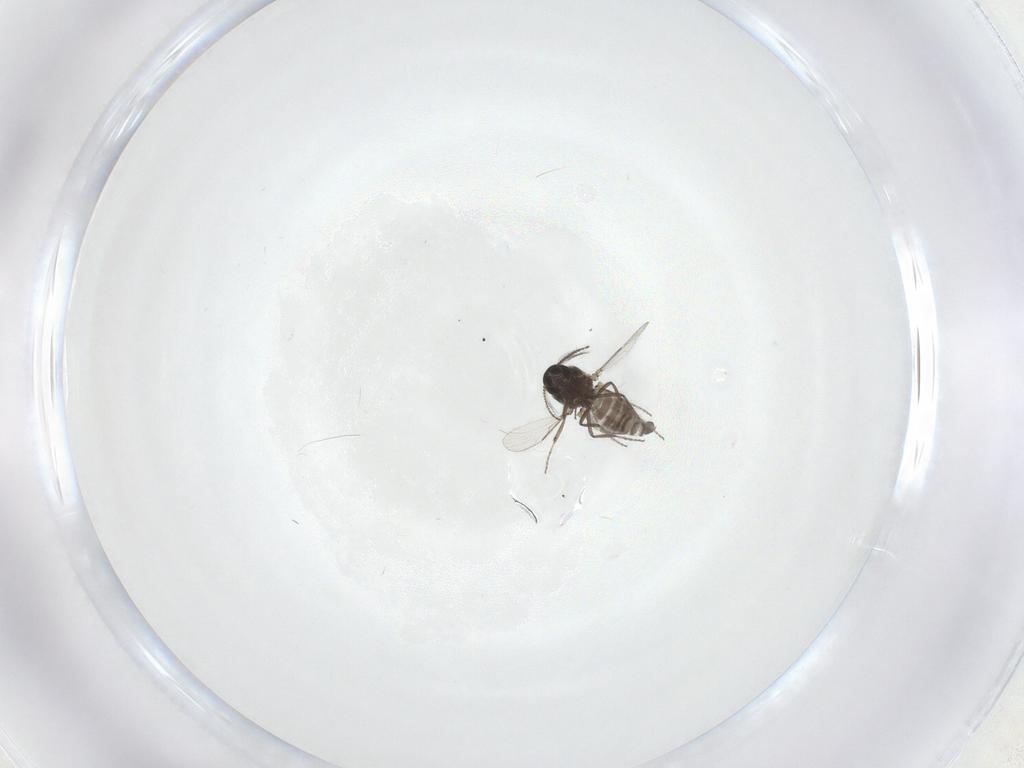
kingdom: Animalia
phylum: Arthropoda
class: Insecta
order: Diptera
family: Ceratopogonidae
